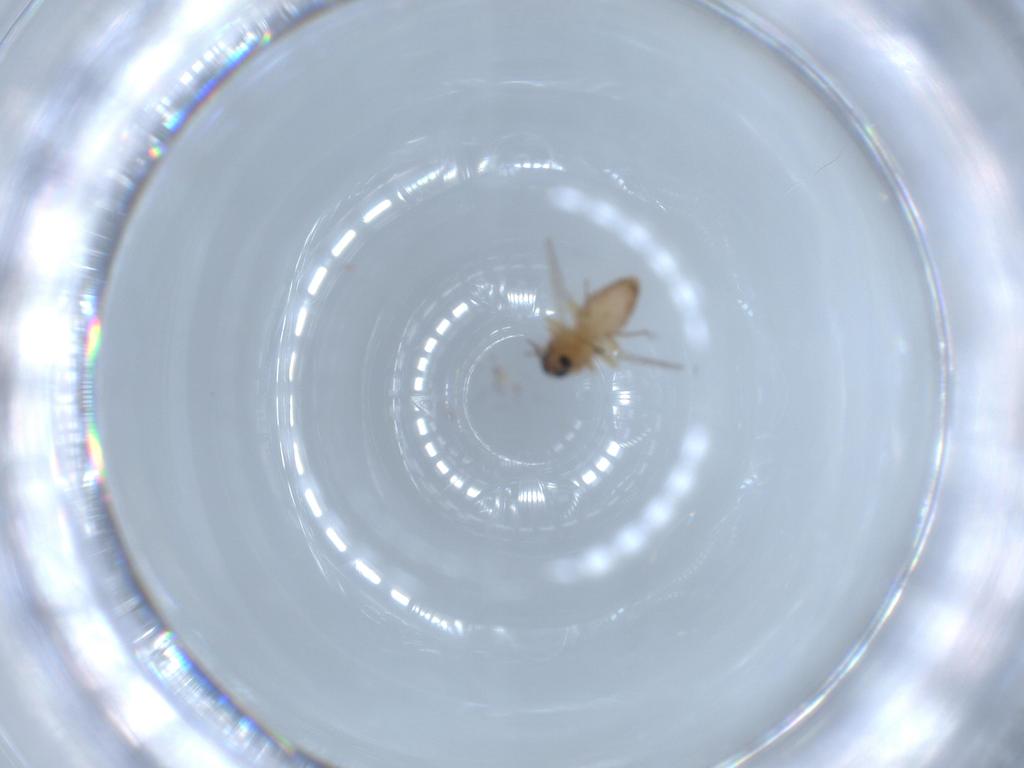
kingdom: Animalia
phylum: Arthropoda
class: Insecta
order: Diptera
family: Ceratopogonidae
